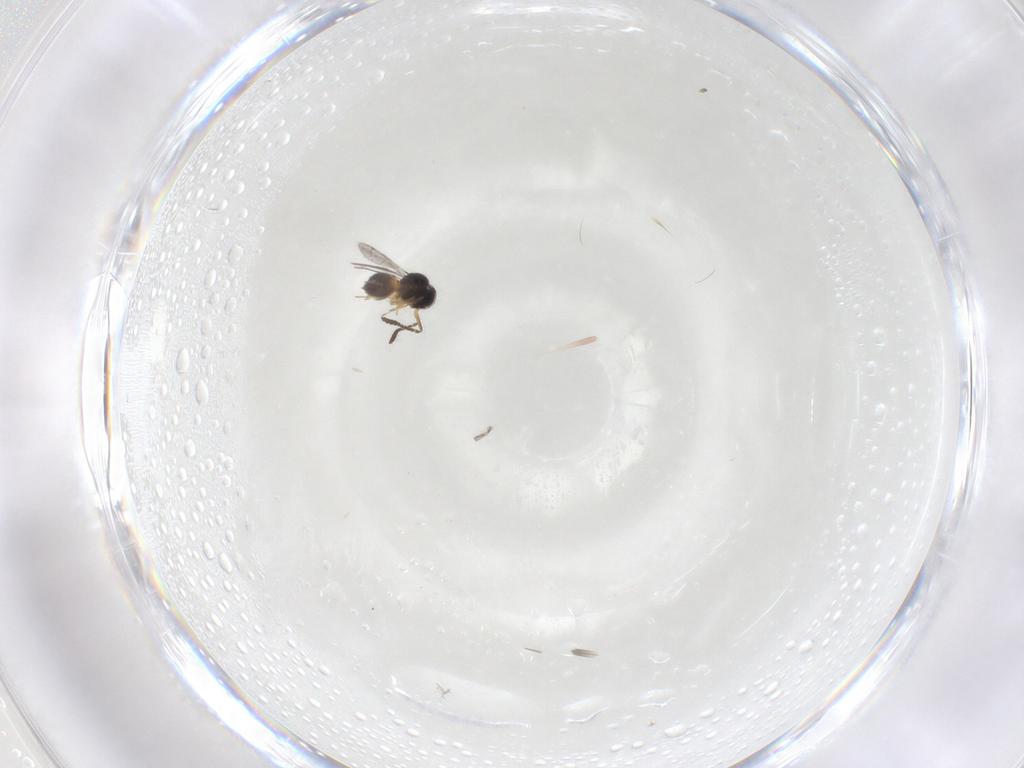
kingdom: Animalia
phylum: Arthropoda
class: Insecta
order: Hymenoptera
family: Scelionidae
